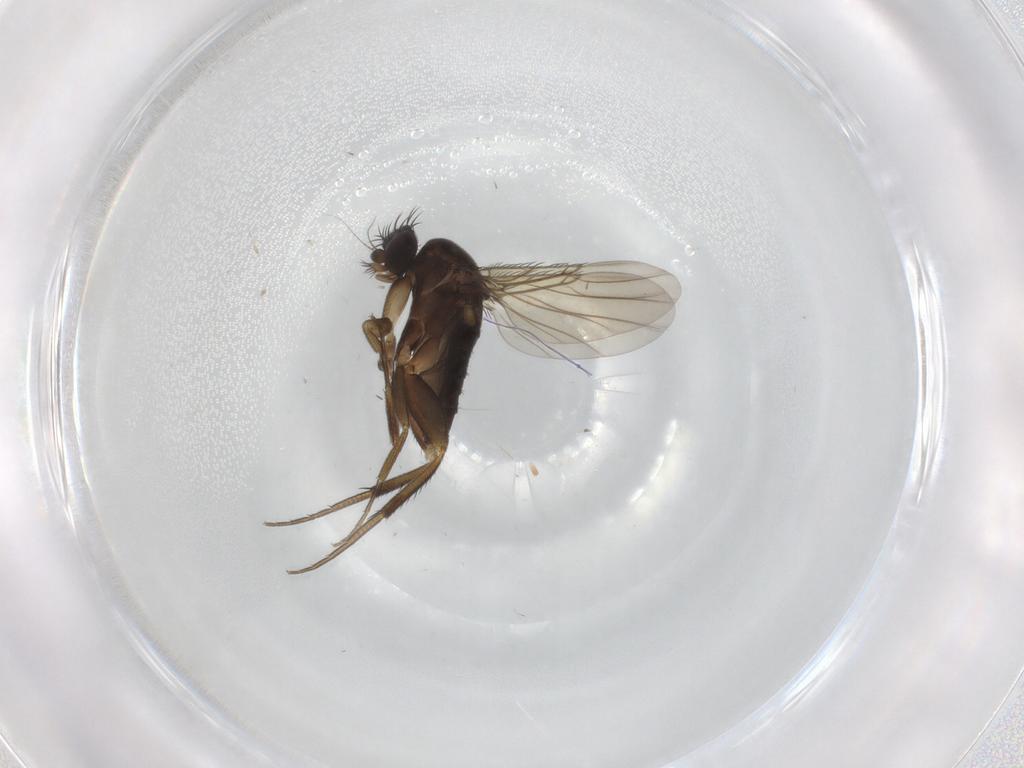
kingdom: Animalia
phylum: Arthropoda
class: Insecta
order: Diptera
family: Phoridae
